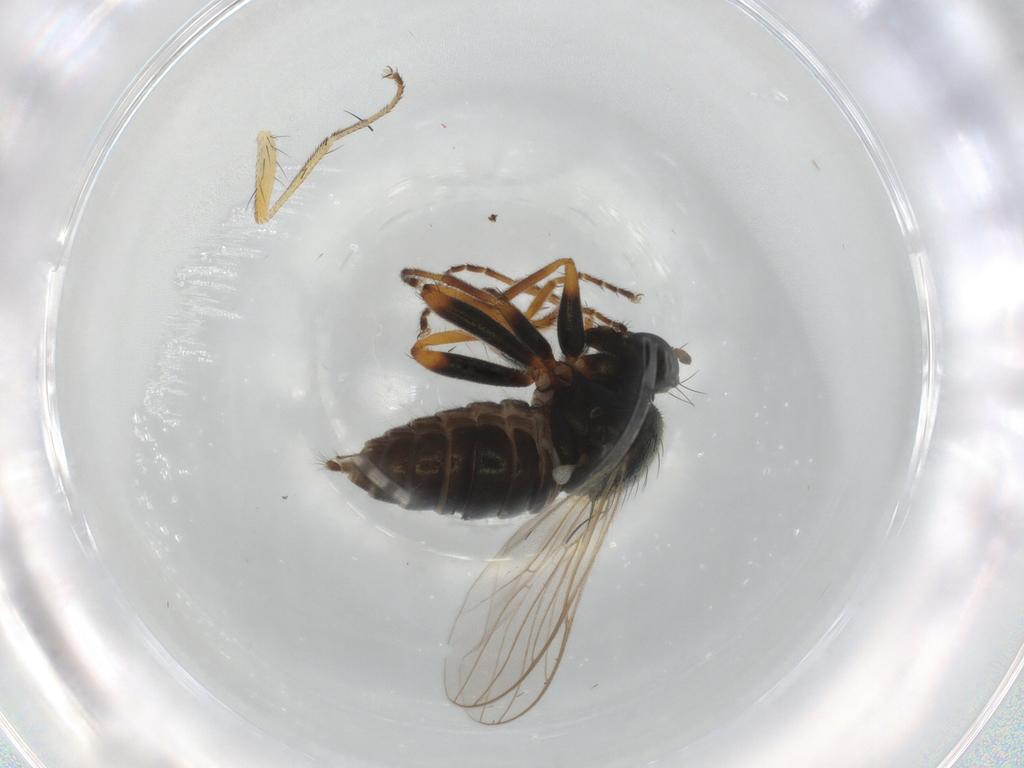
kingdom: Animalia
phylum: Arthropoda
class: Insecta
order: Diptera
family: Hybotidae
